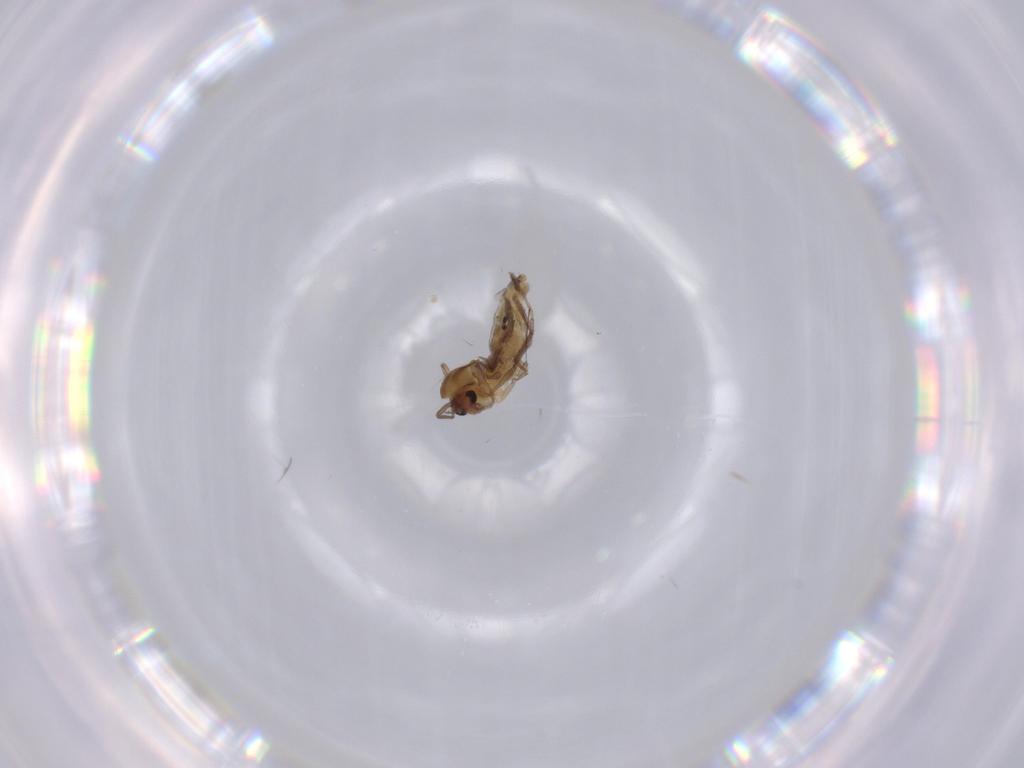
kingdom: Animalia
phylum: Arthropoda
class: Insecta
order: Diptera
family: Chironomidae
